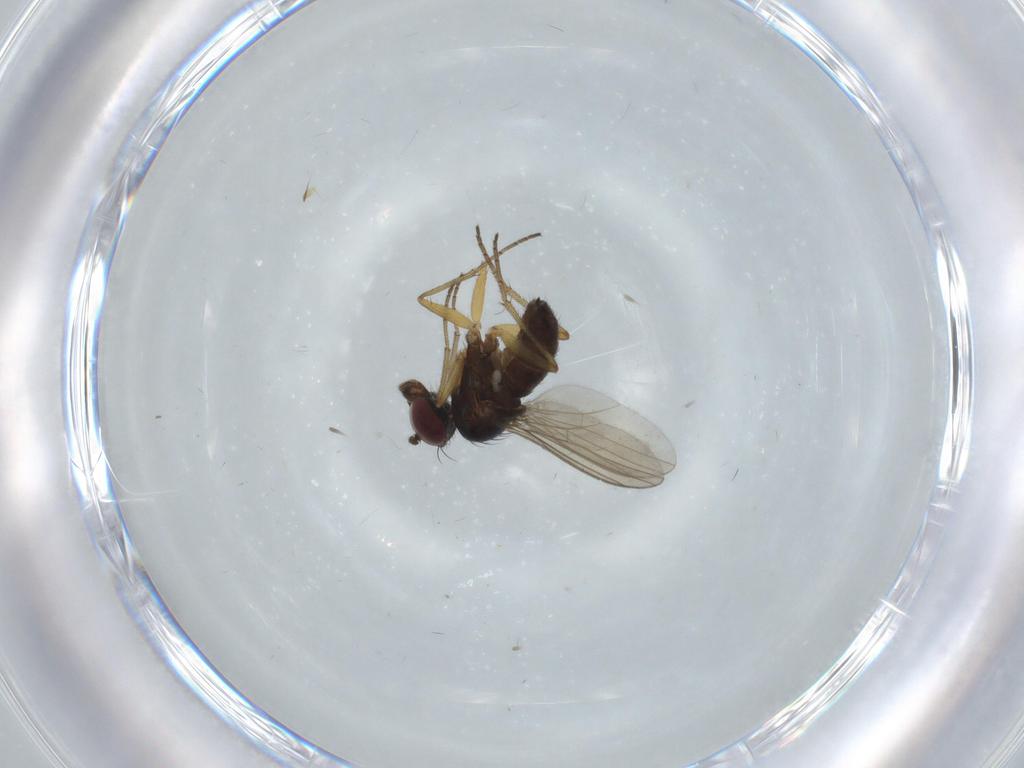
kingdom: Animalia
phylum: Arthropoda
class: Insecta
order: Diptera
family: Dolichopodidae
